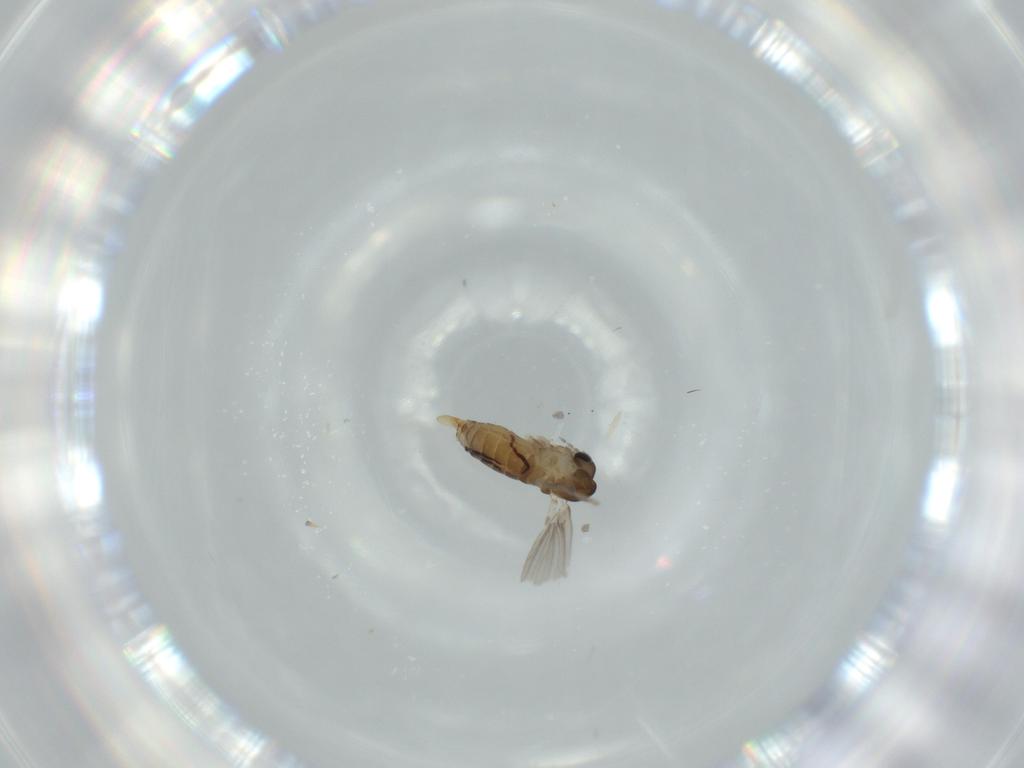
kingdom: Animalia
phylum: Arthropoda
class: Insecta
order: Diptera
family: Psychodidae
